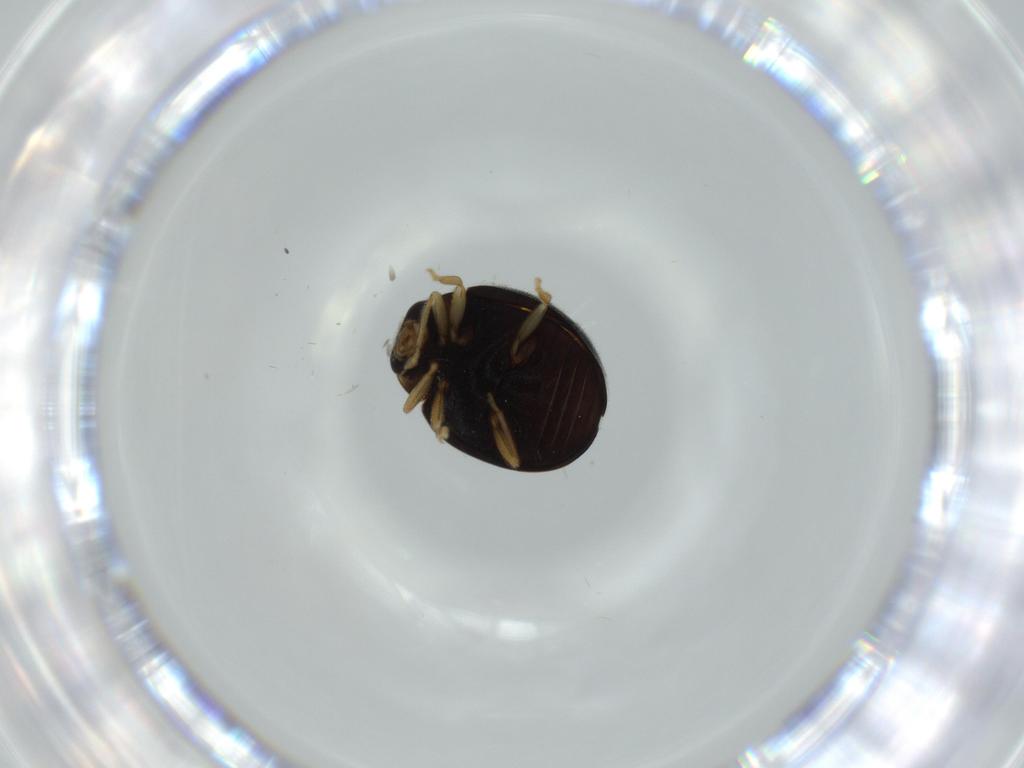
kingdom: Animalia
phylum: Arthropoda
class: Insecta
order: Coleoptera
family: Coccinellidae
